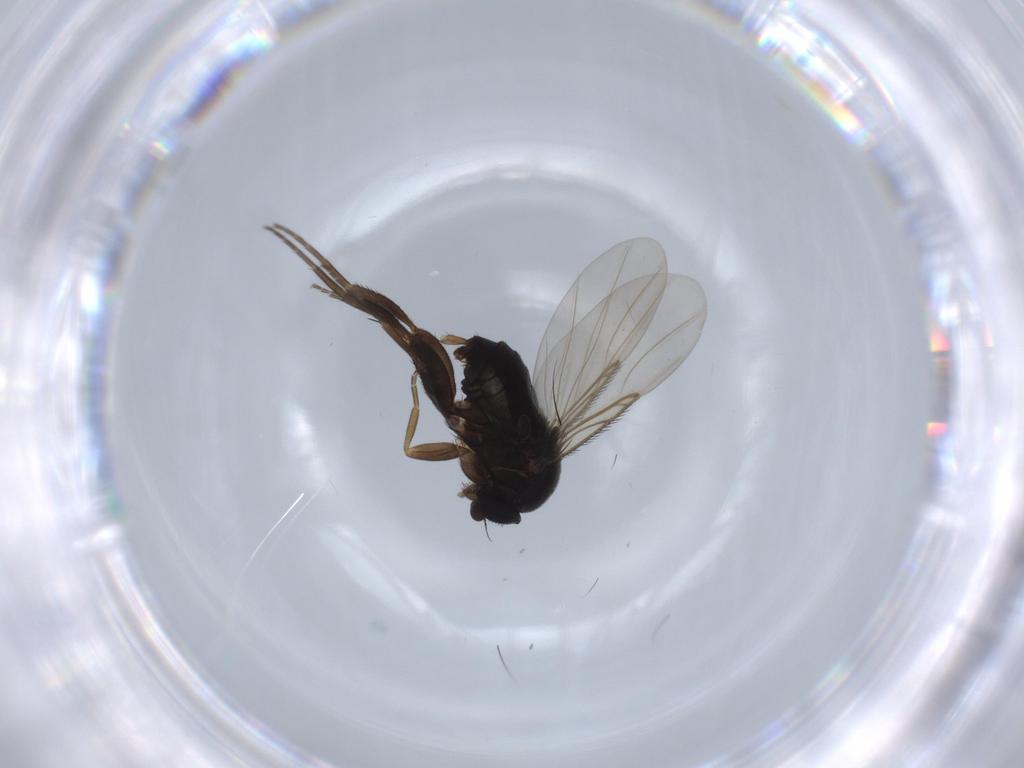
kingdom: Animalia
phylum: Arthropoda
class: Insecta
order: Diptera
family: Phoridae
